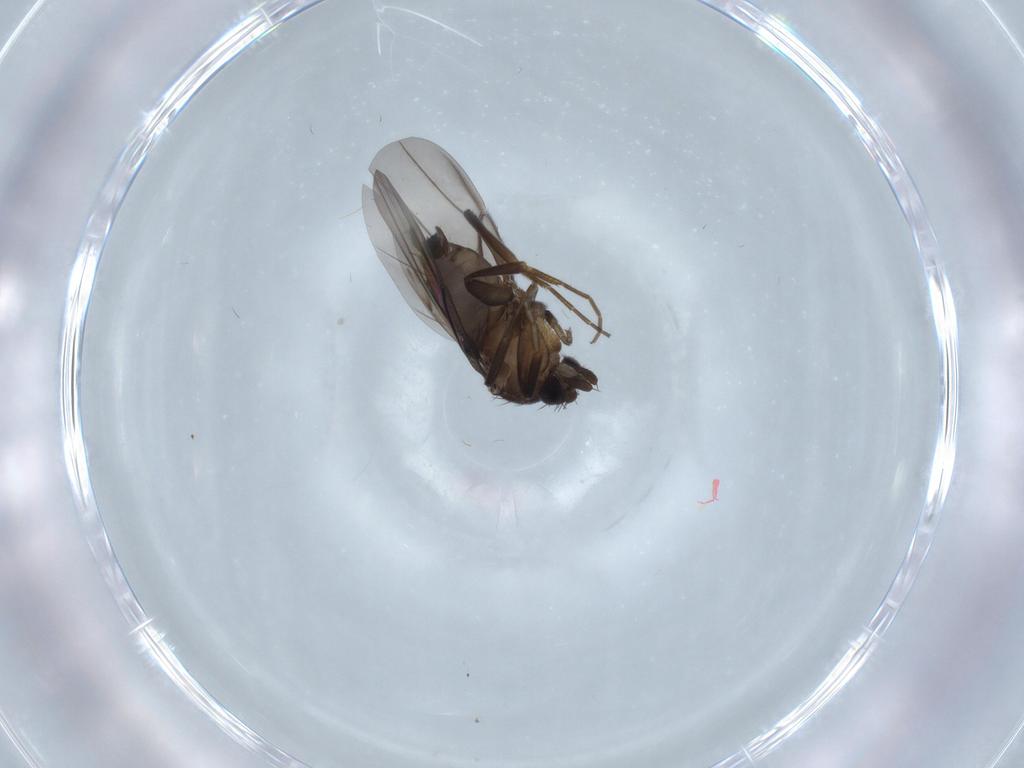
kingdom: Animalia
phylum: Arthropoda
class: Insecta
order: Diptera
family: Phoridae
